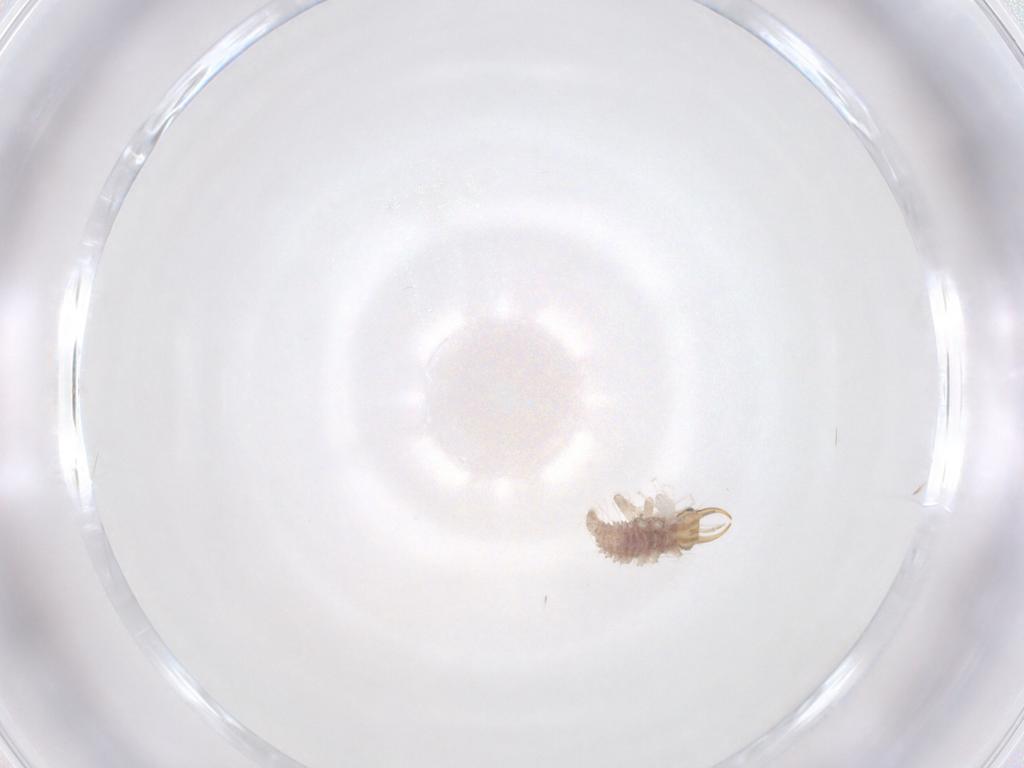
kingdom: Animalia
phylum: Arthropoda
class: Insecta
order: Neuroptera
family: Chrysopidae
